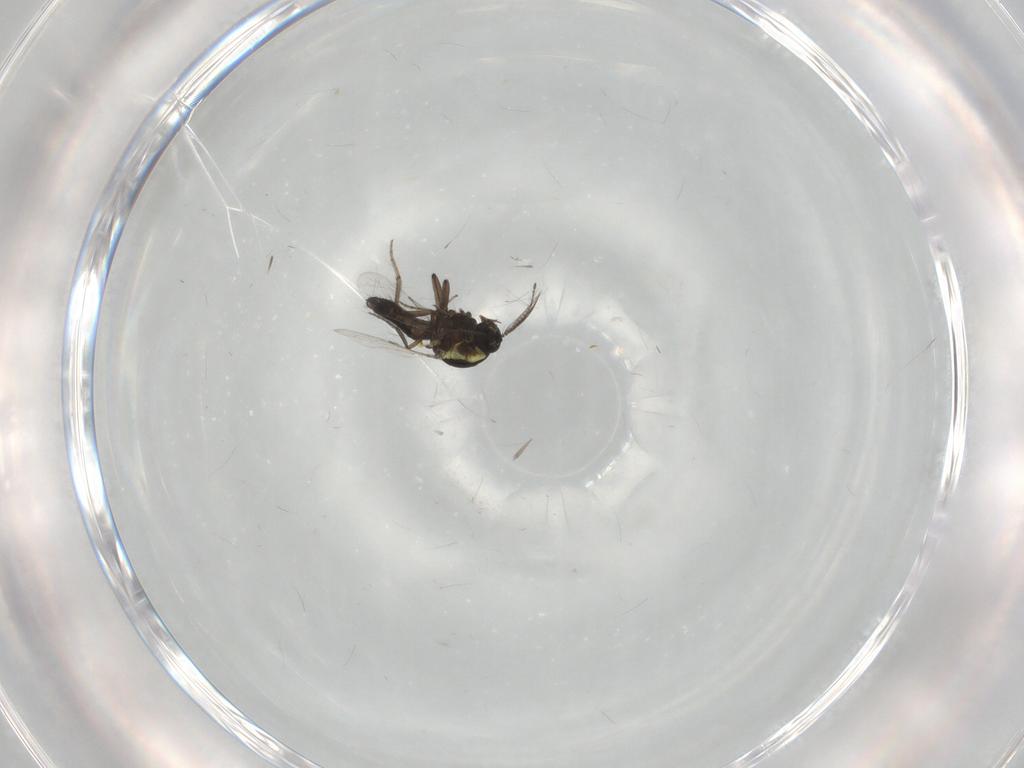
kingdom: Animalia
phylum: Arthropoda
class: Insecta
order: Diptera
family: Ceratopogonidae
